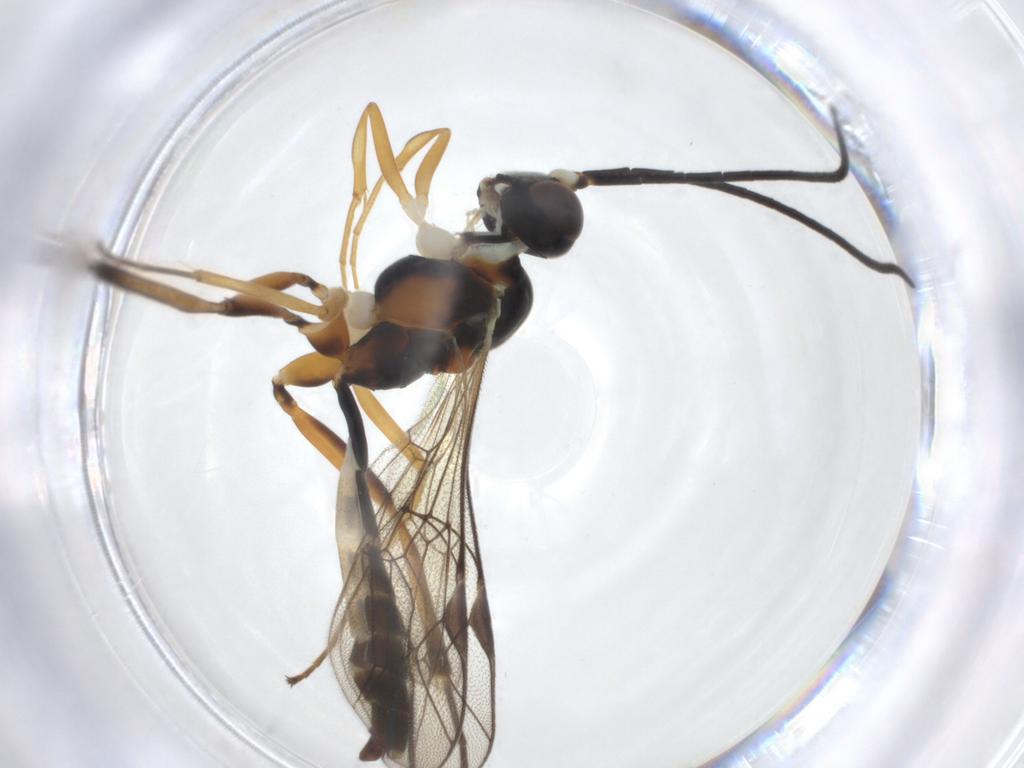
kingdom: Animalia
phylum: Arthropoda
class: Insecta
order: Hymenoptera
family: Ichneumonidae
